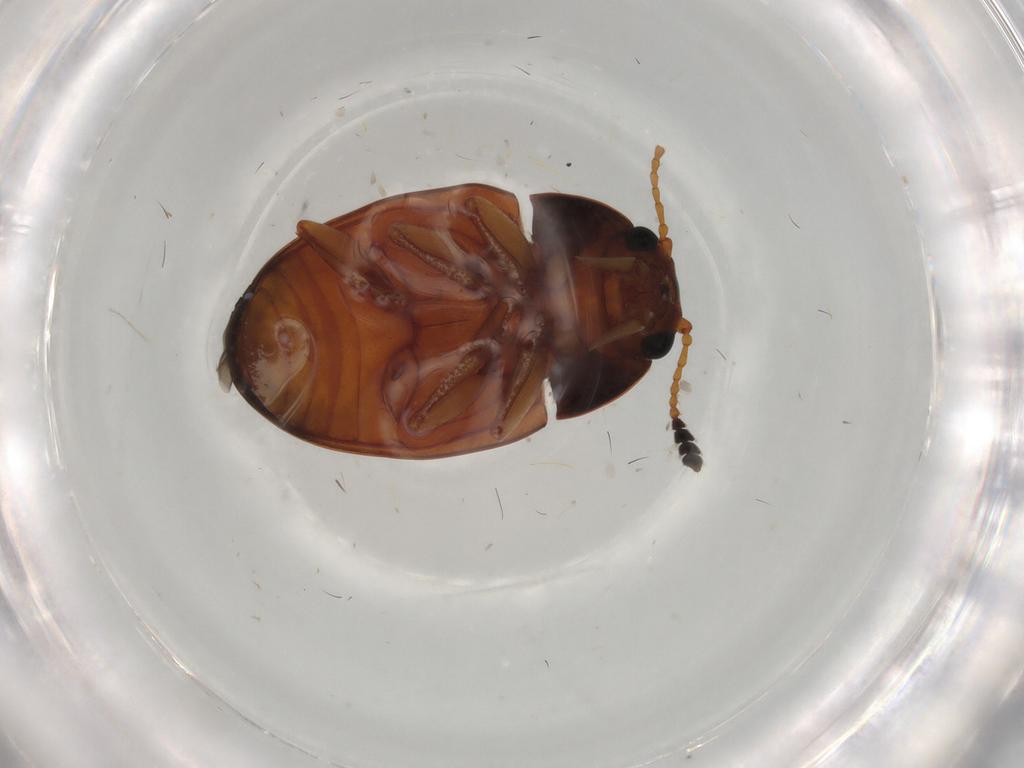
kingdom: Animalia
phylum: Arthropoda
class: Insecta
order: Coleoptera
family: Erotylidae
